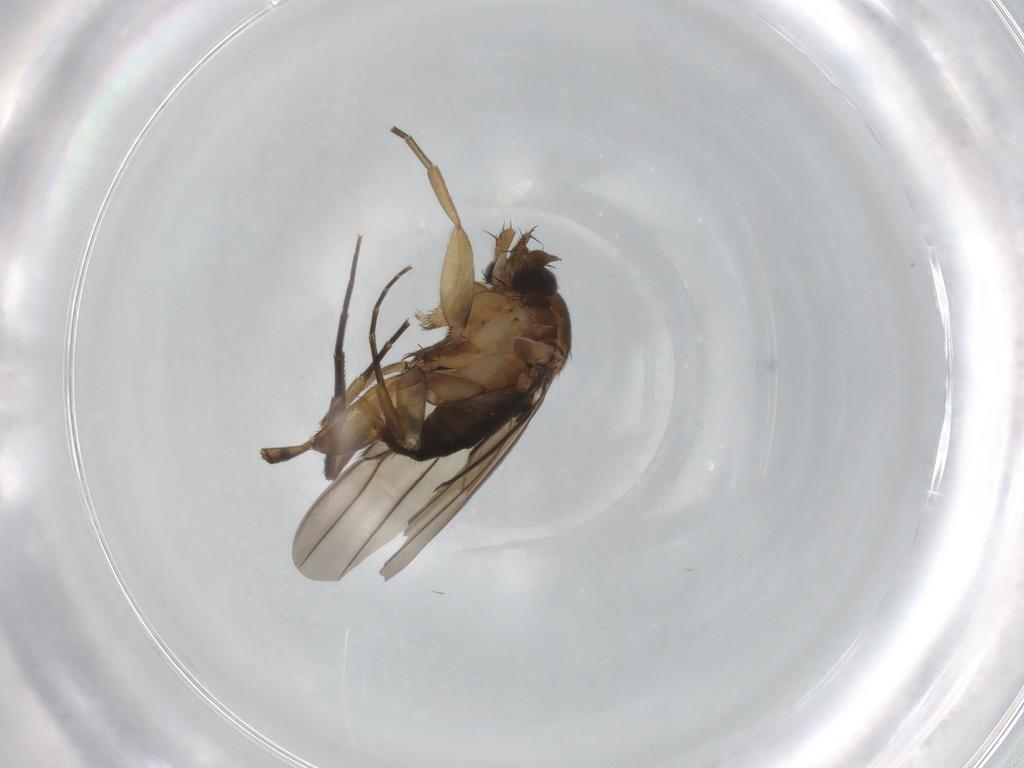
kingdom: Animalia
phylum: Arthropoda
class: Insecta
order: Diptera
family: Phoridae
